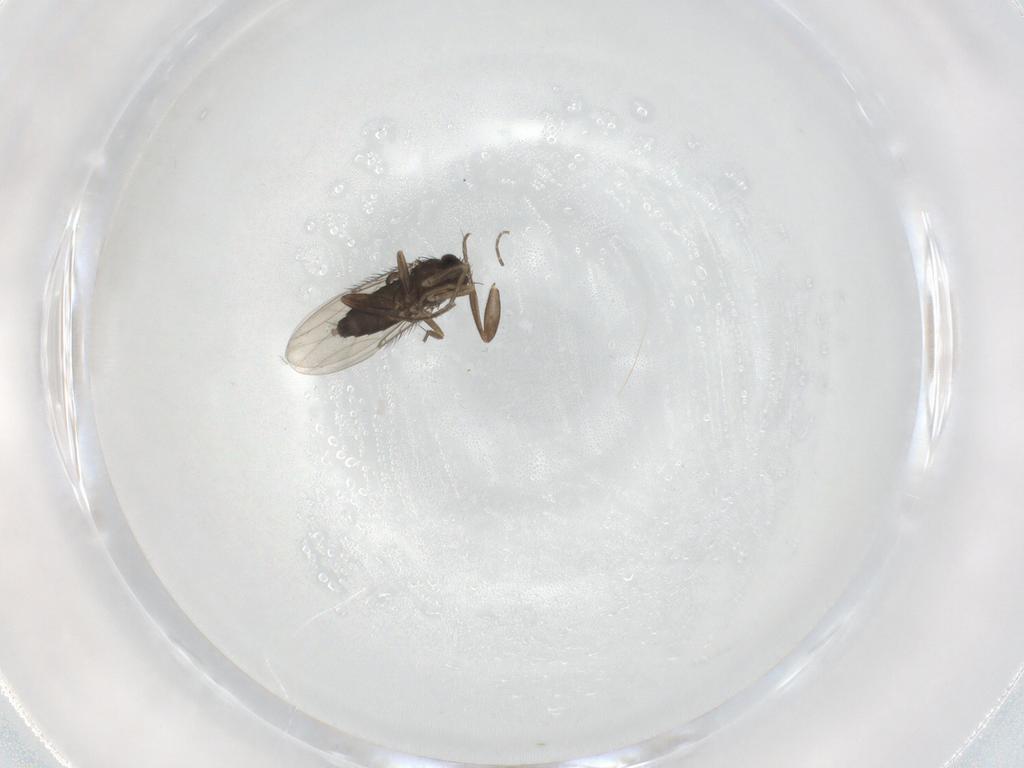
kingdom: Animalia
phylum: Arthropoda
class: Insecta
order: Diptera
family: Phoridae
